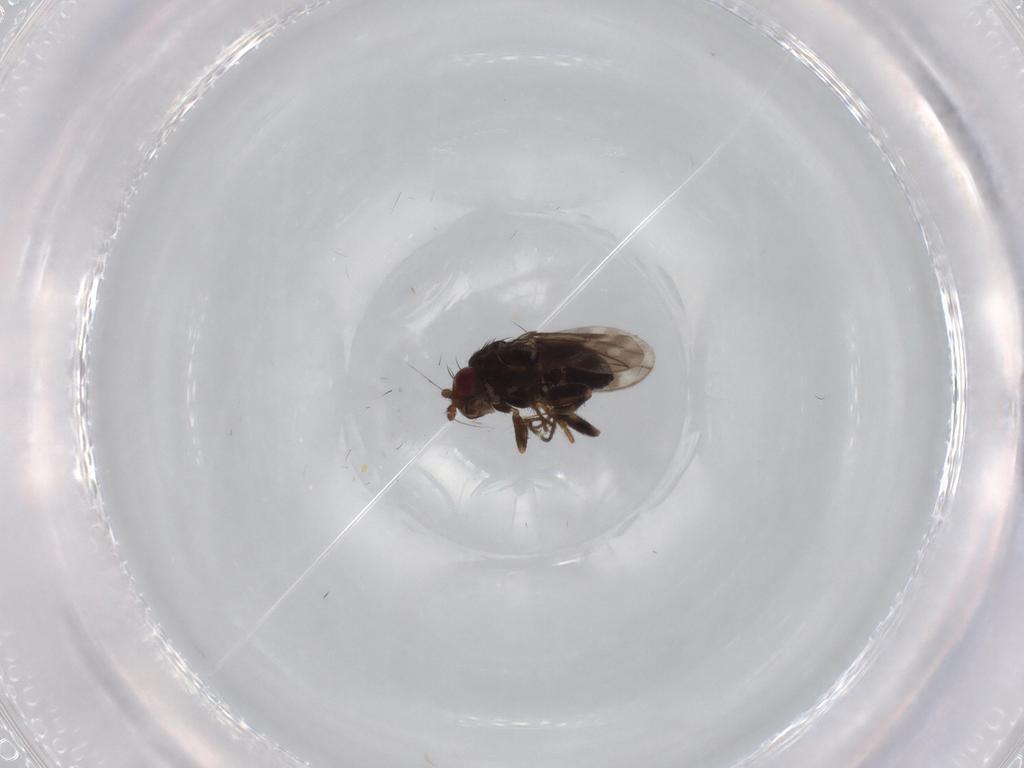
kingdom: Animalia
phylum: Arthropoda
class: Insecta
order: Diptera
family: Sphaeroceridae
